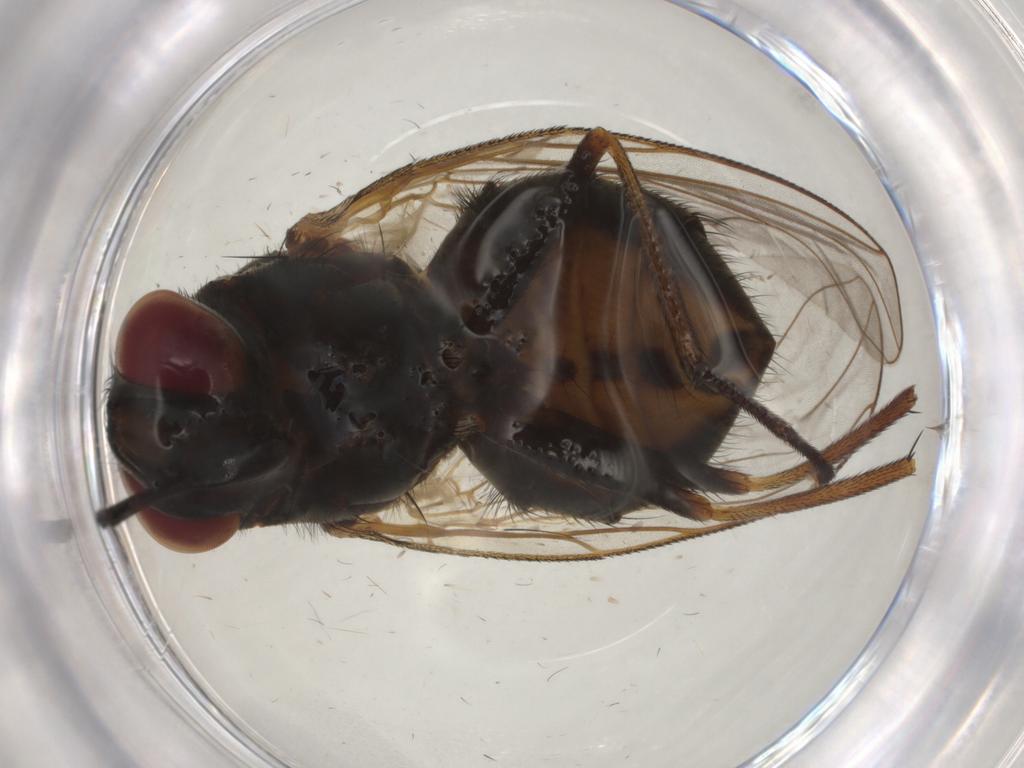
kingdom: Animalia
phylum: Arthropoda
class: Insecta
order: Diptera
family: Muscidae
